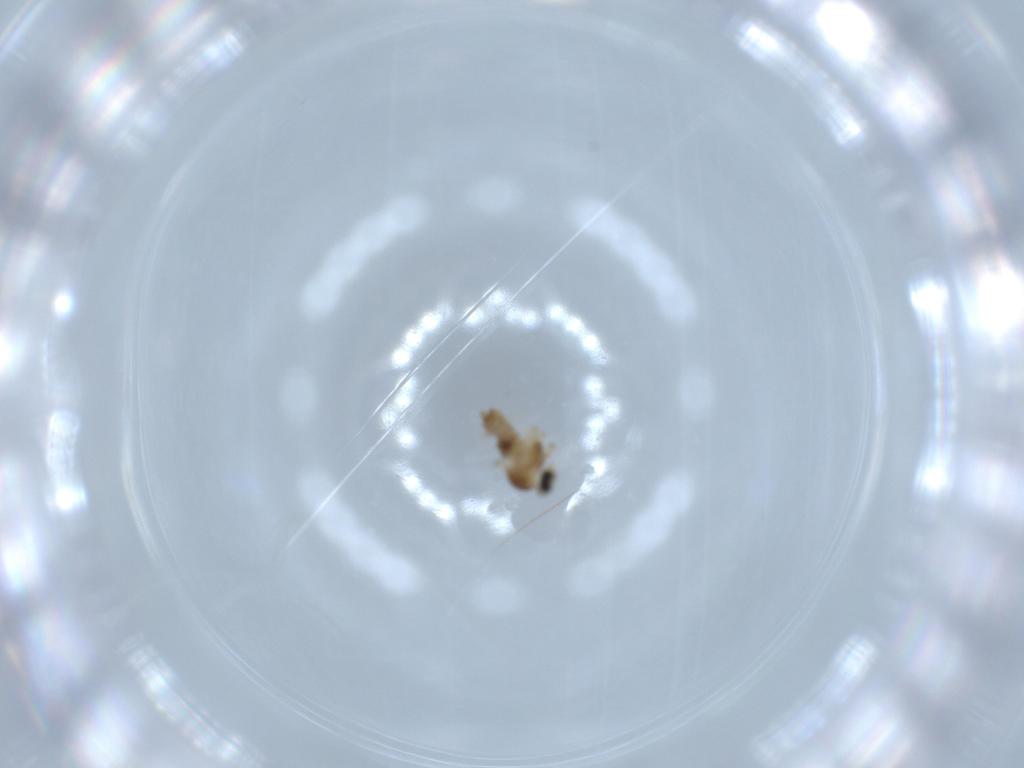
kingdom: Animalia
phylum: Arthropoda
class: Insecta
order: Diptera
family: Cecidomyiidae
